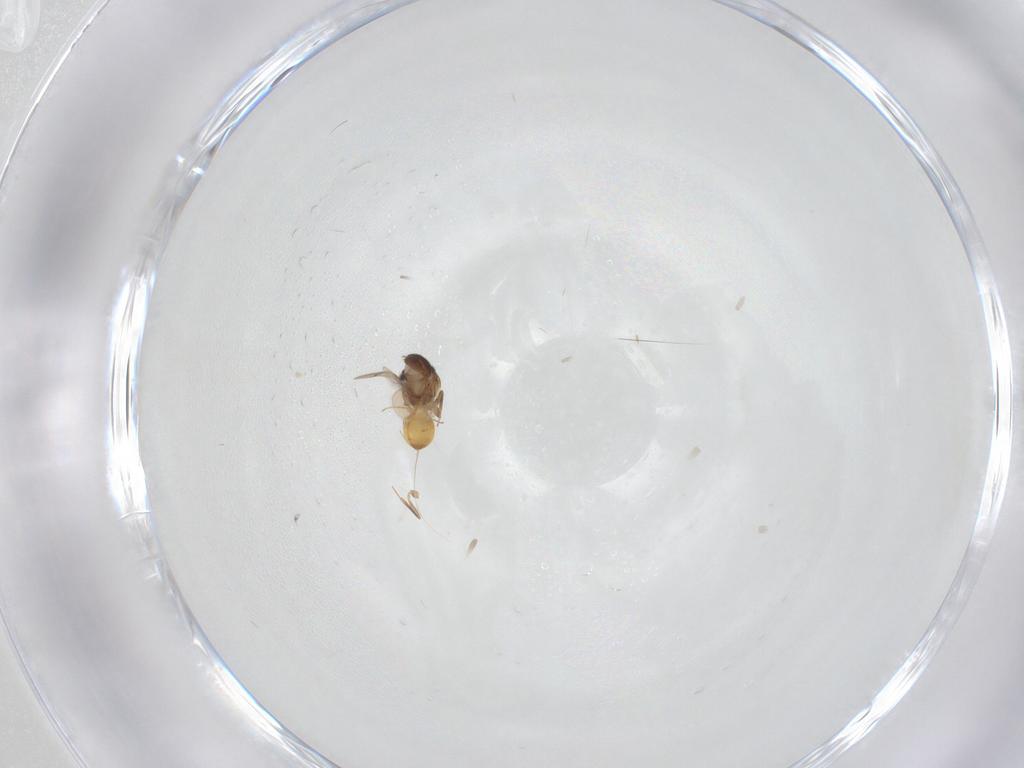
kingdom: Animalia
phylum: Arthropoda
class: Insecta
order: Hymenoptera
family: Scelionidae
